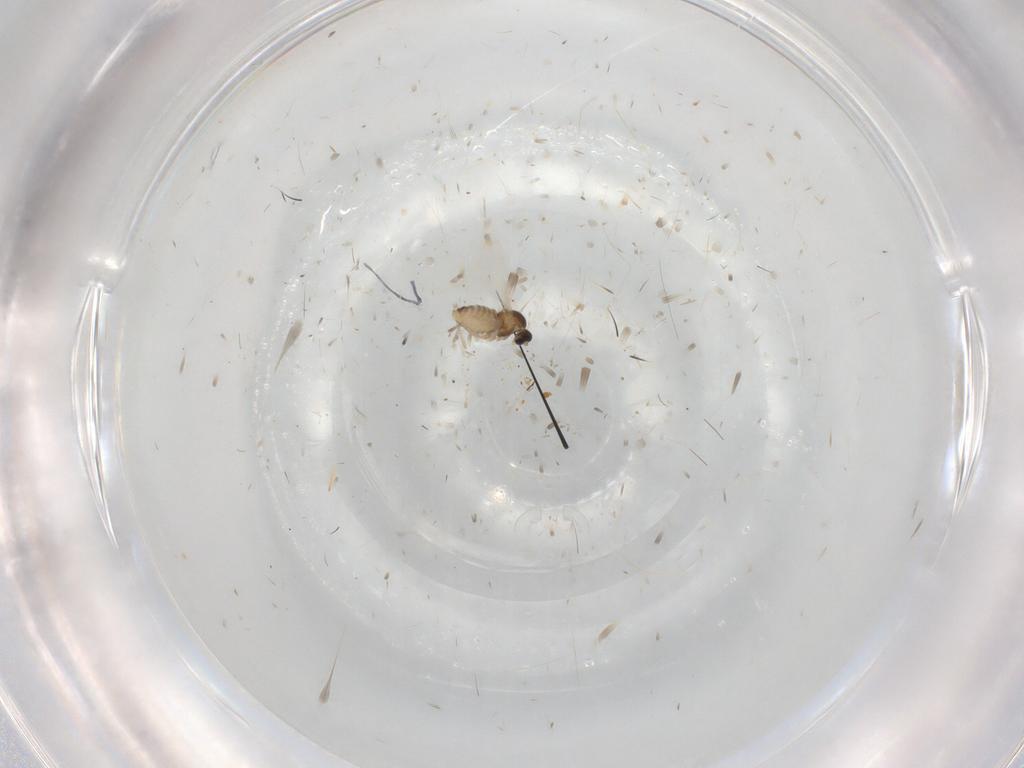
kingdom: Animalia
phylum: Arthropoda
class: Insecta
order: Diptera
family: Cecidomyiidae
